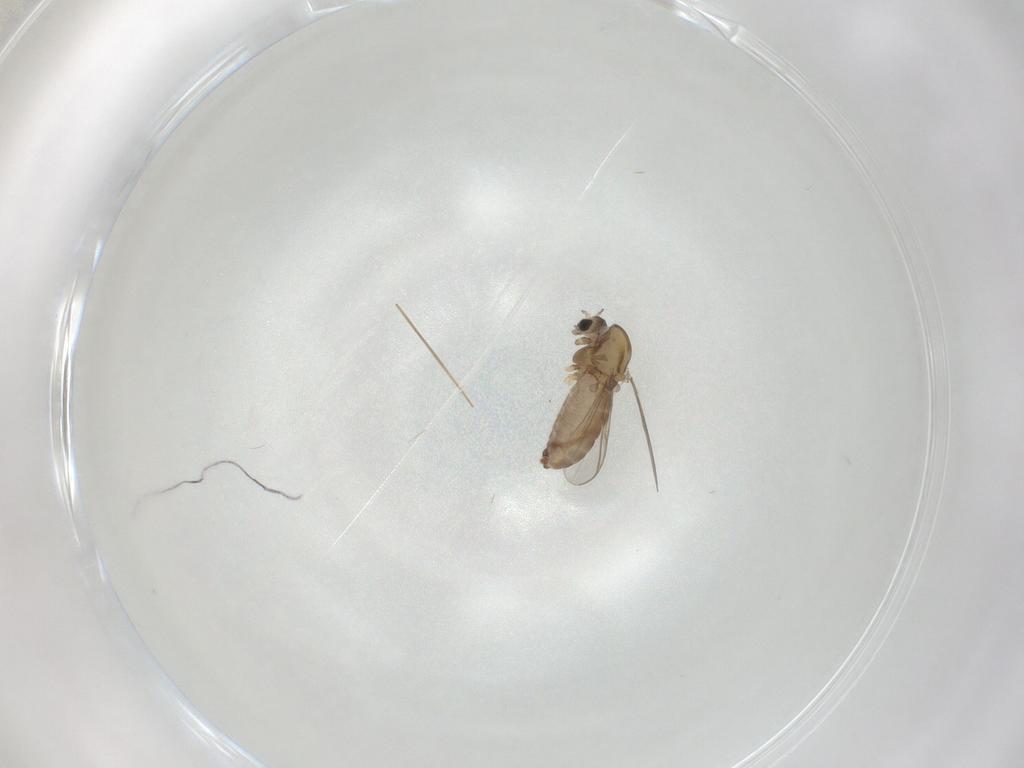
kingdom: Animalia
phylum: Arthropoda
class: Insecta
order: Diptera
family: Chironomidae
